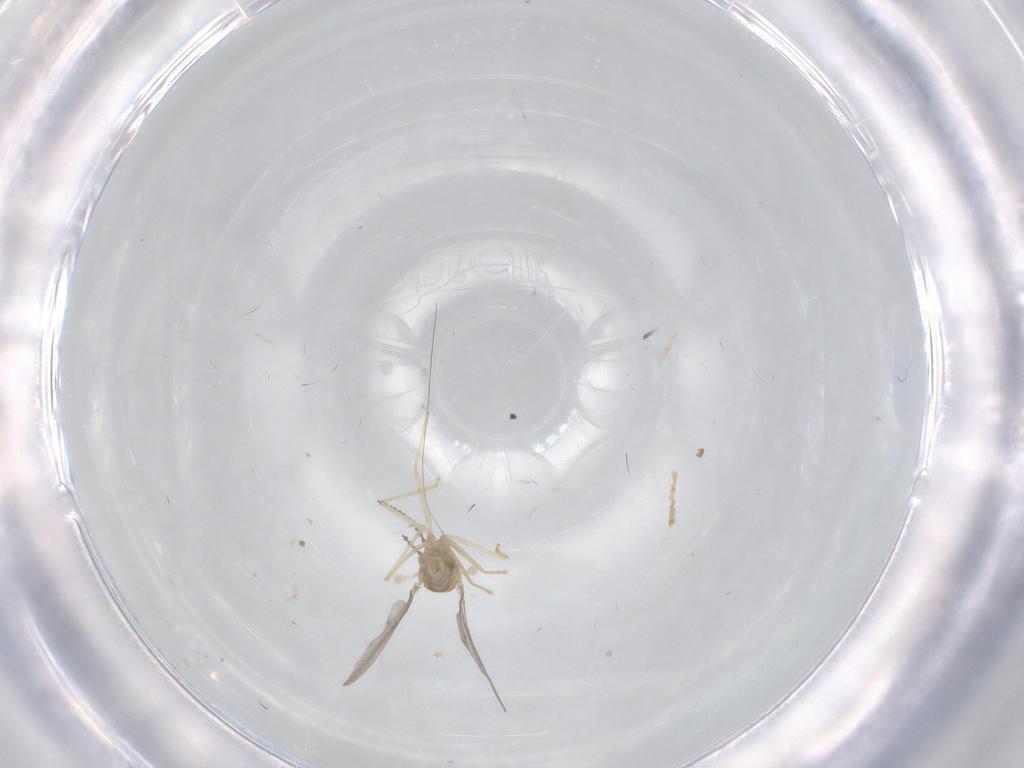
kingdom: Animalia
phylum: Arthropoda
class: Insecta
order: Diptera
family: Cecidomyiidae
